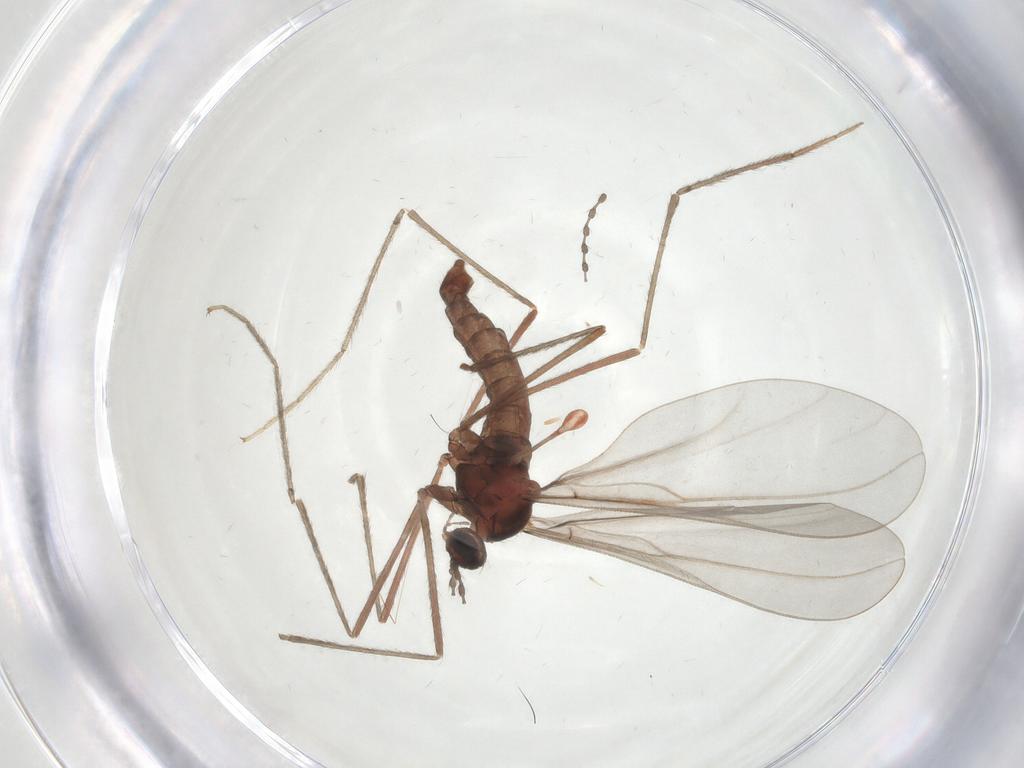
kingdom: Animalia
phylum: Arthropoda
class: Insecta
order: Diptera
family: Cecidomyiidae
